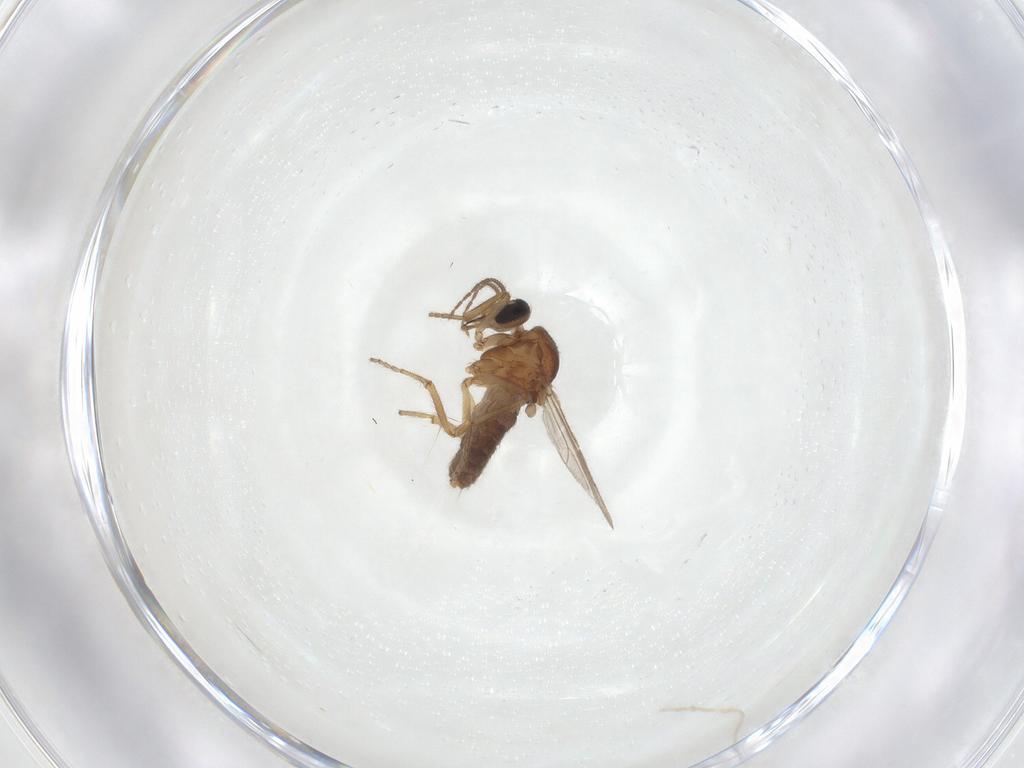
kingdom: Animalia
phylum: Arthropoda
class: Insecta
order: Diptera
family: Ceratopogonidae
